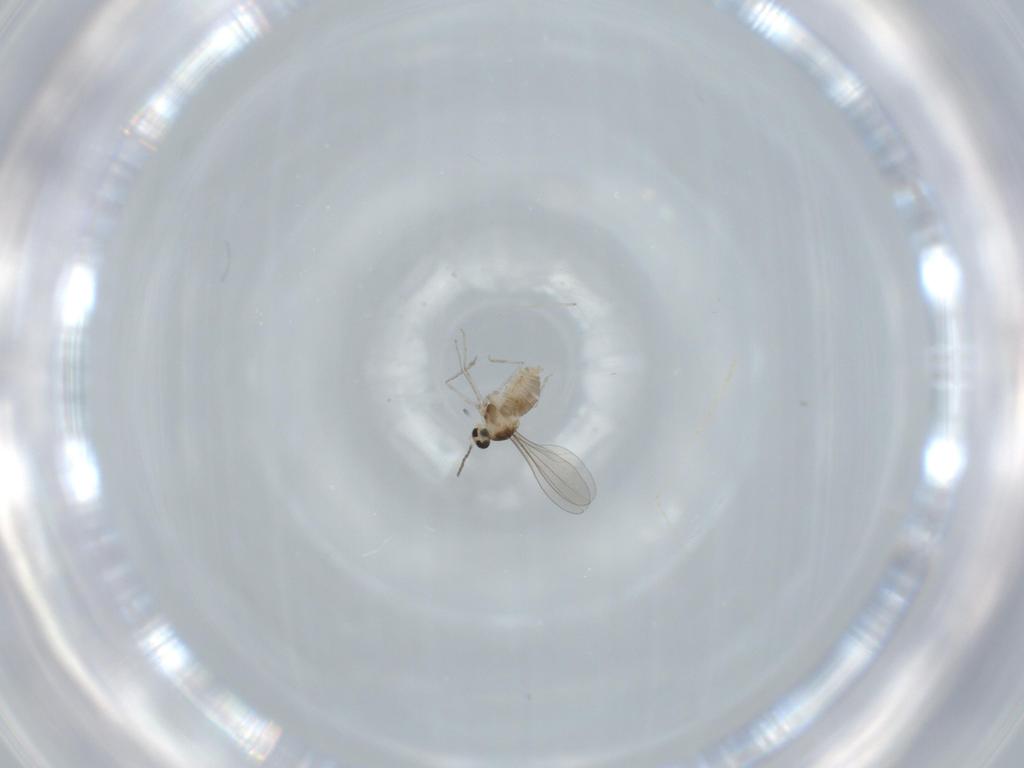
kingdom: Animalia
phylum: Arthropoda
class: Insecta
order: Diptera
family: Cecidomyiidae
